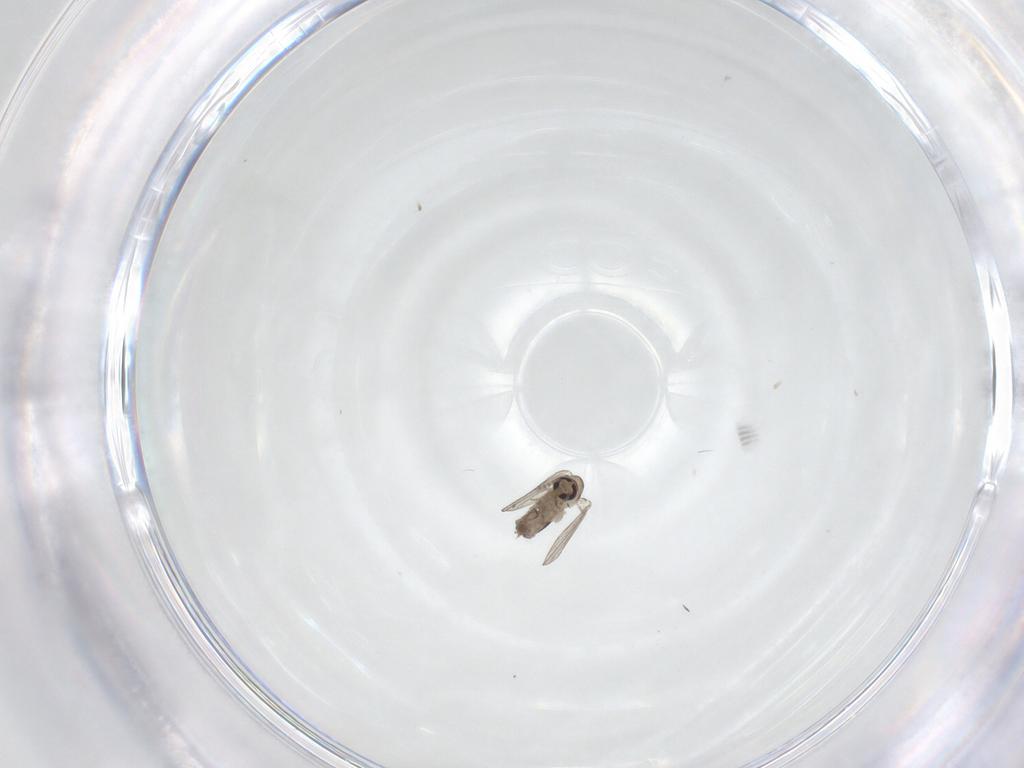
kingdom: Animalia
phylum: Arthropoda
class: Insecta
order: Diptera
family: Psychodidae
